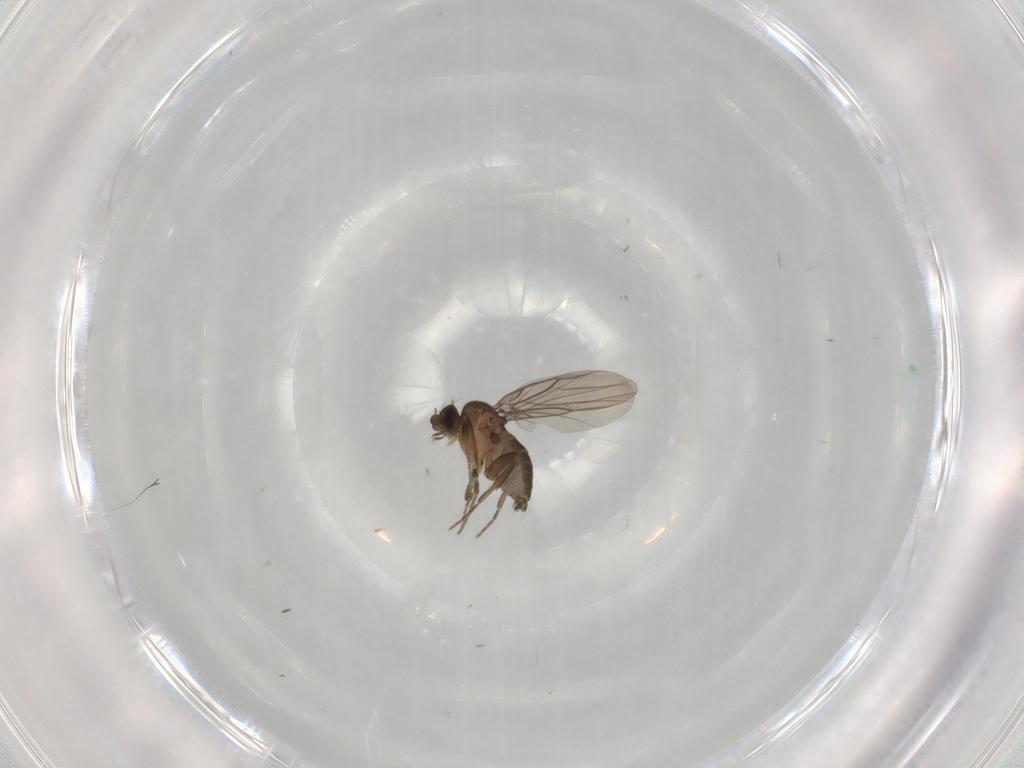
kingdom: Animalia
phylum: Arthropoda
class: Insecta
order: Diptera
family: Phoridae
